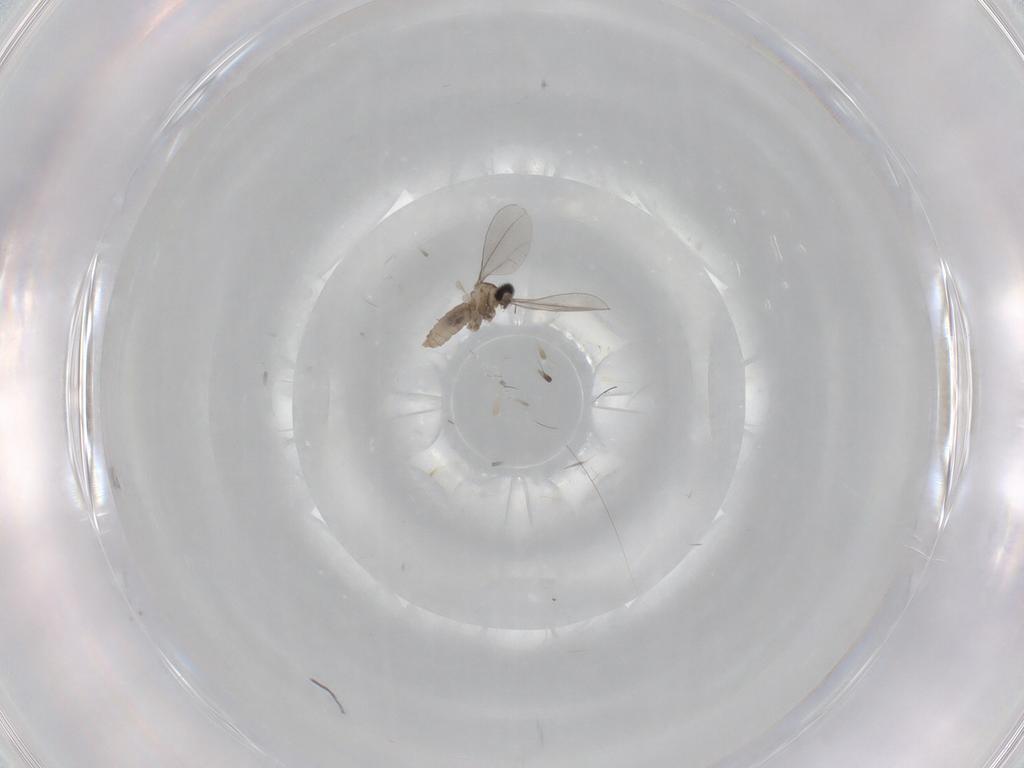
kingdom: Animalia
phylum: Arthropoda
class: Insecta
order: Diptera
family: Cecidomyiidae
